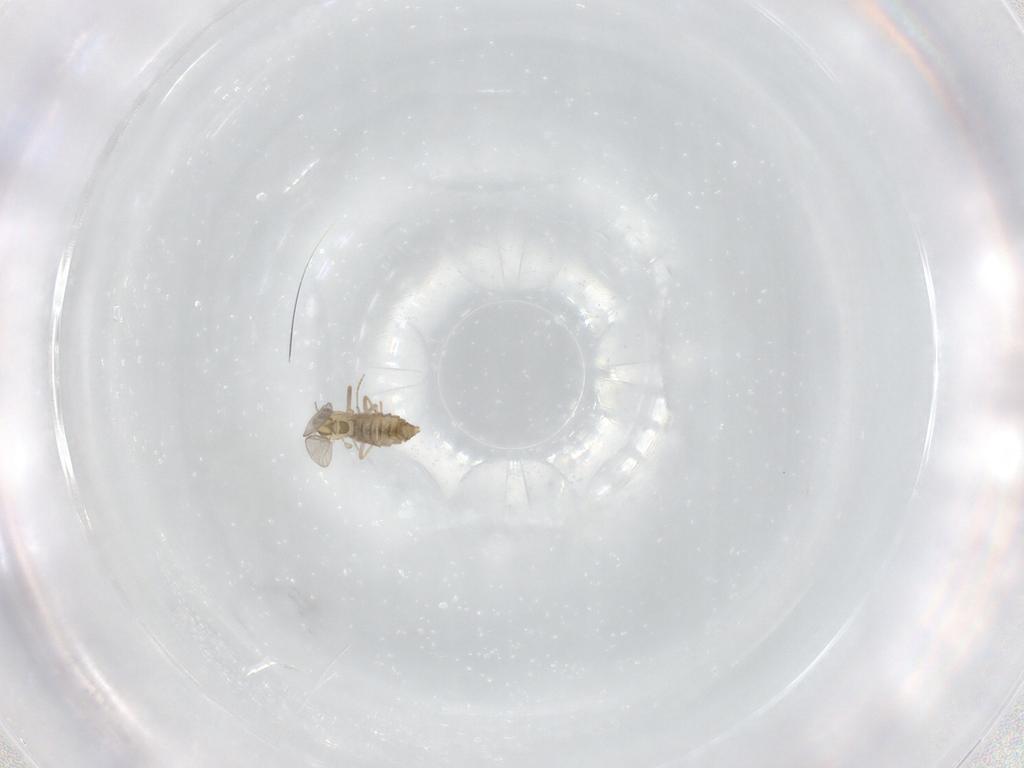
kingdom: Animalia
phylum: Arthropoda
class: Insecta
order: Diptera
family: Chironomidae
